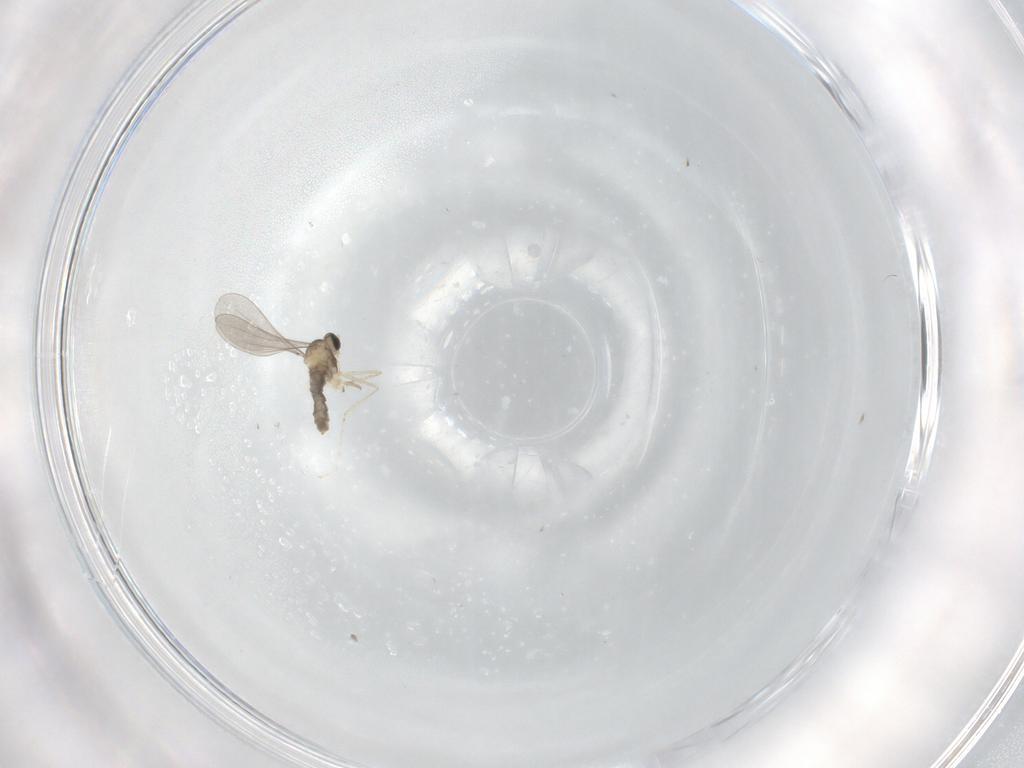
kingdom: Animalia
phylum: Arthropoda
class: Insecta
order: Diptera
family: Cecidomyiidae
